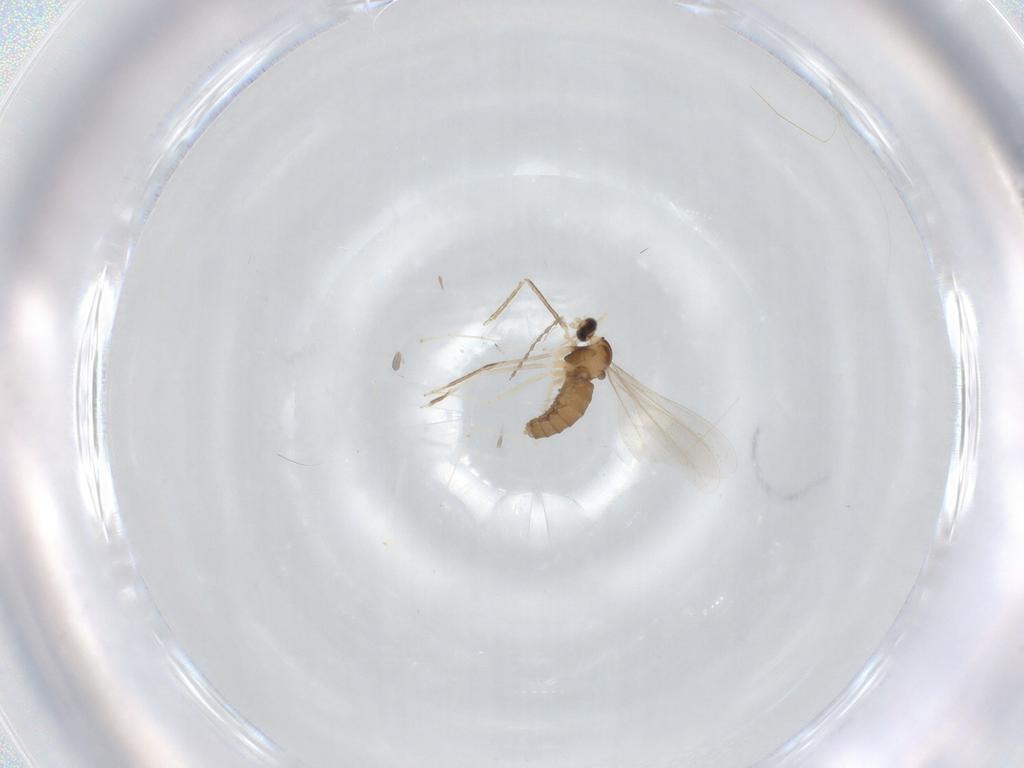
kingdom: Animalia
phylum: Arthropoda
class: Insecta
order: Diptera
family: Cecidomyiidae
